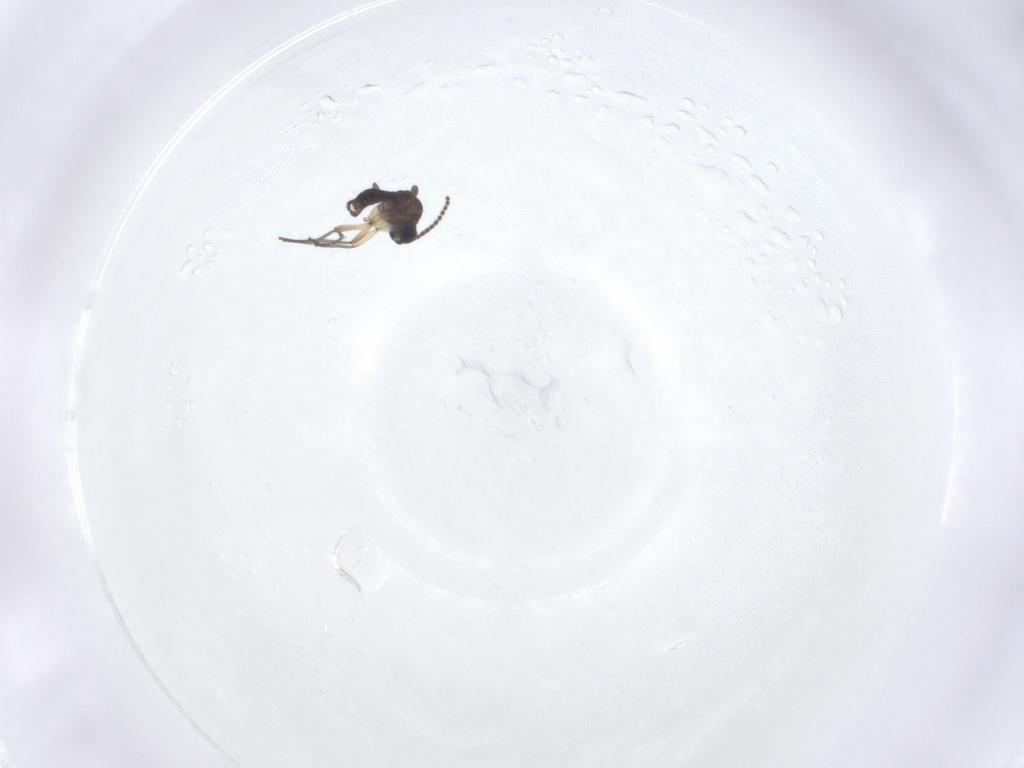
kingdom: Animalia
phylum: Arthropoda
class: Insecta
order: Diptera
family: Sciaridae
